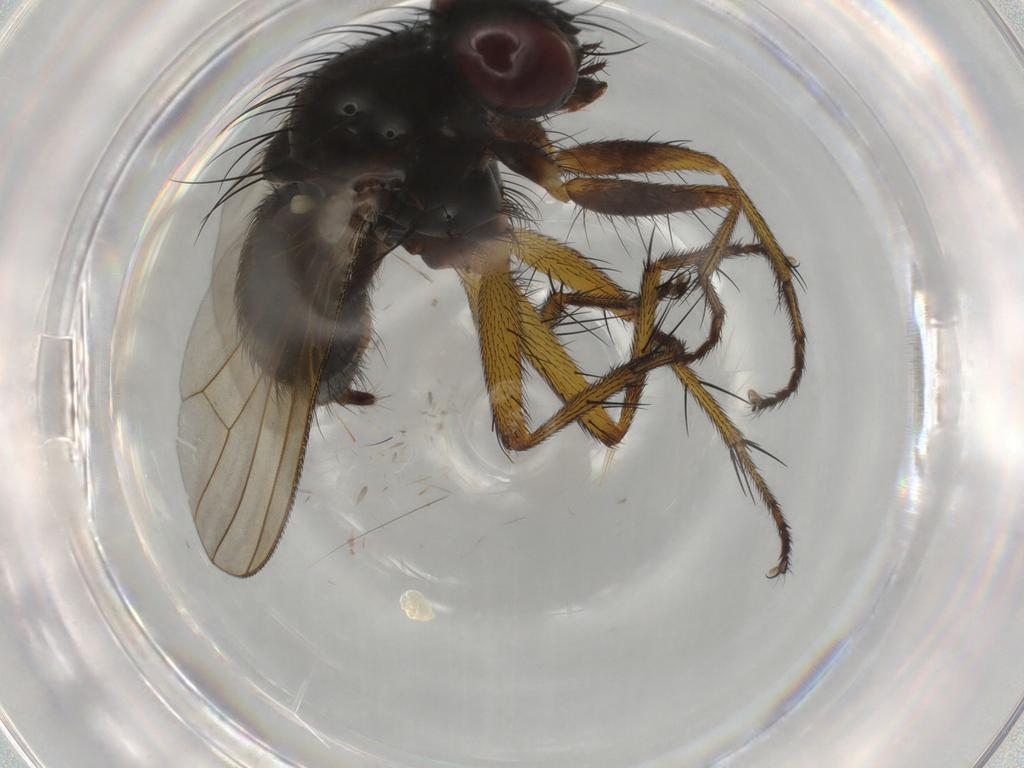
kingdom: Animalia
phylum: Arthropoda
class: Insecta
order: Diptera
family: Muscidae
